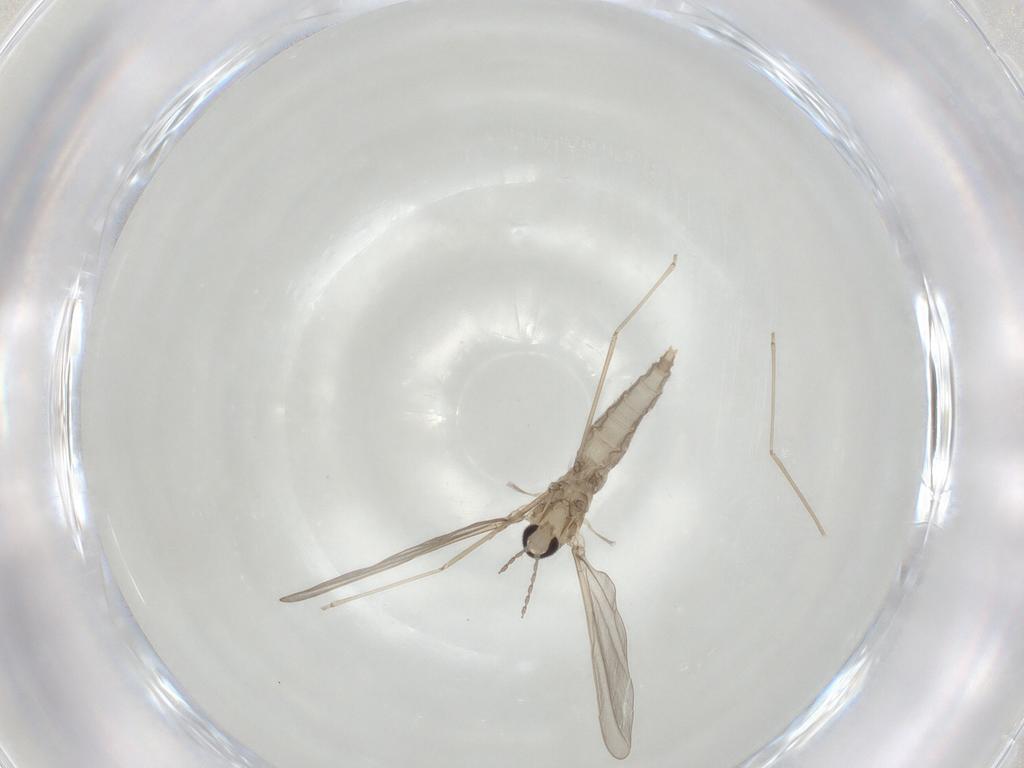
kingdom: Animalia
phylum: Arthropoda
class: Insecta
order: Diptera
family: Cecidomyiidae
